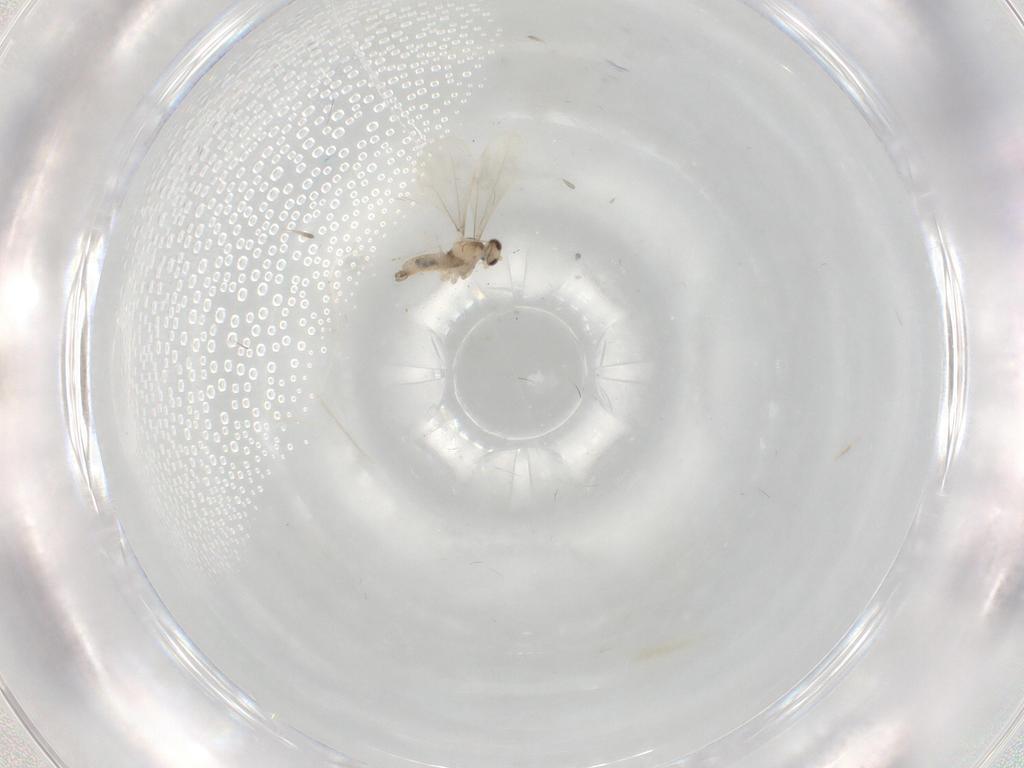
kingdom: Animalia
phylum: Arthropoda
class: Insecta
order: Diptera
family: Cecidomyiidae
